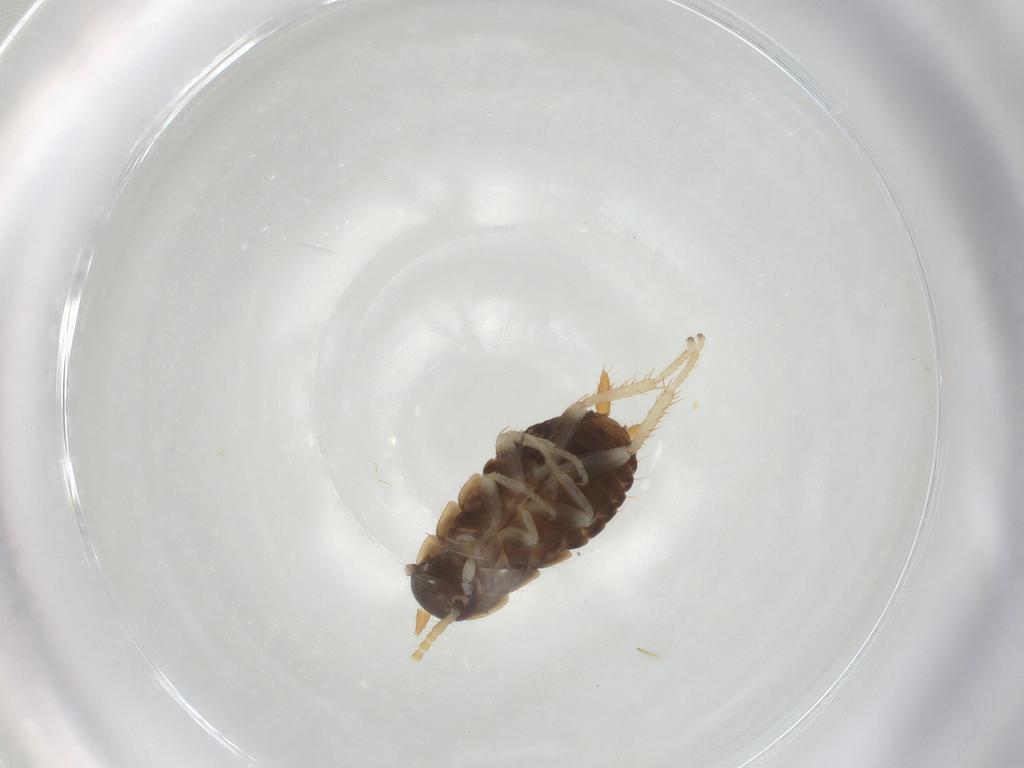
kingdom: Animalia
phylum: Arthropoda
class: Insecta
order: Blattodea
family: Ectobiidae
